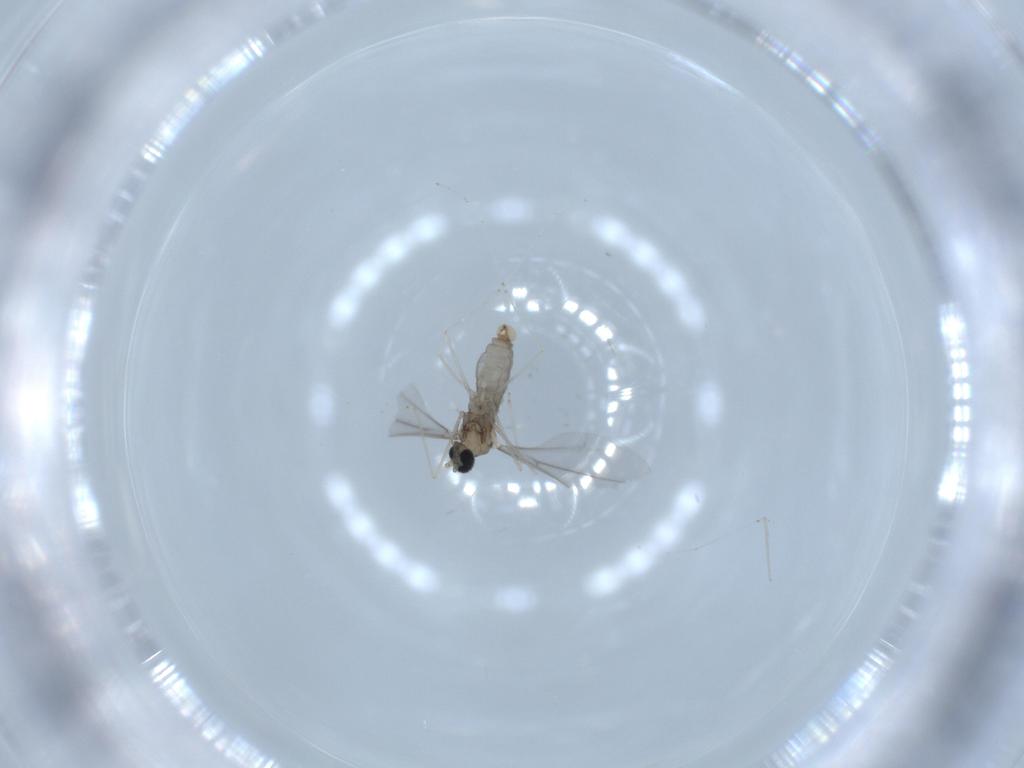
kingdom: Animalia
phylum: Arthropoda
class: Insecta
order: Diptera
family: Cecidomyiidae
